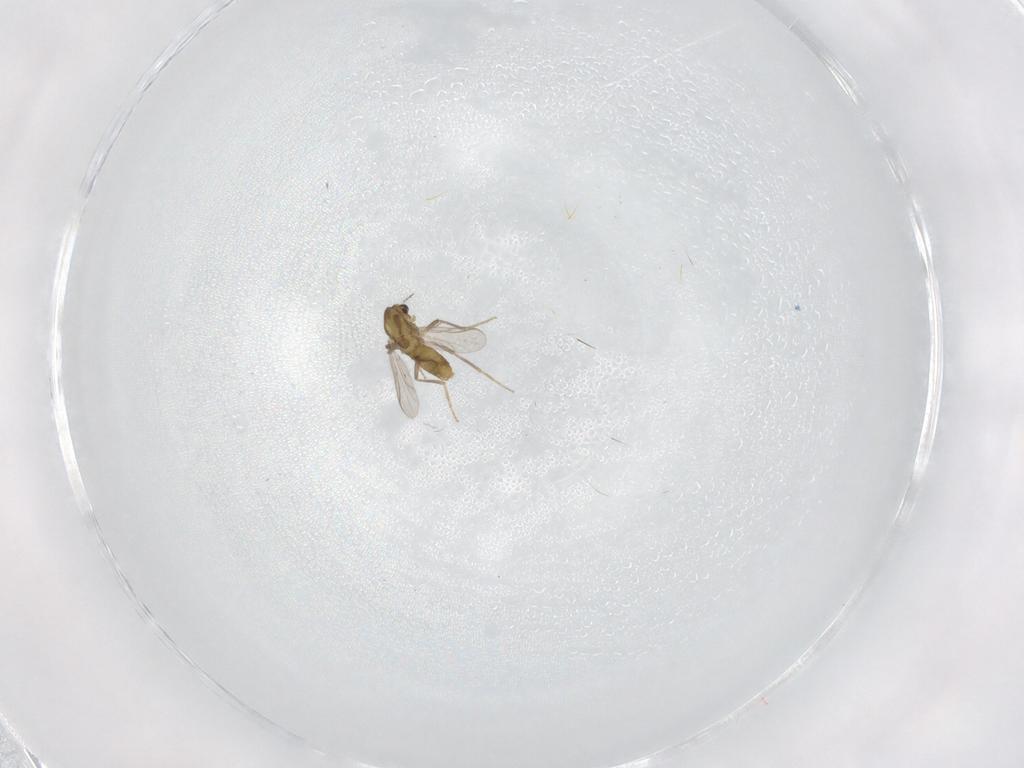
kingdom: Animalia
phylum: Arthropoda
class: Insecta
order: Diptera
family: Chironomidae
